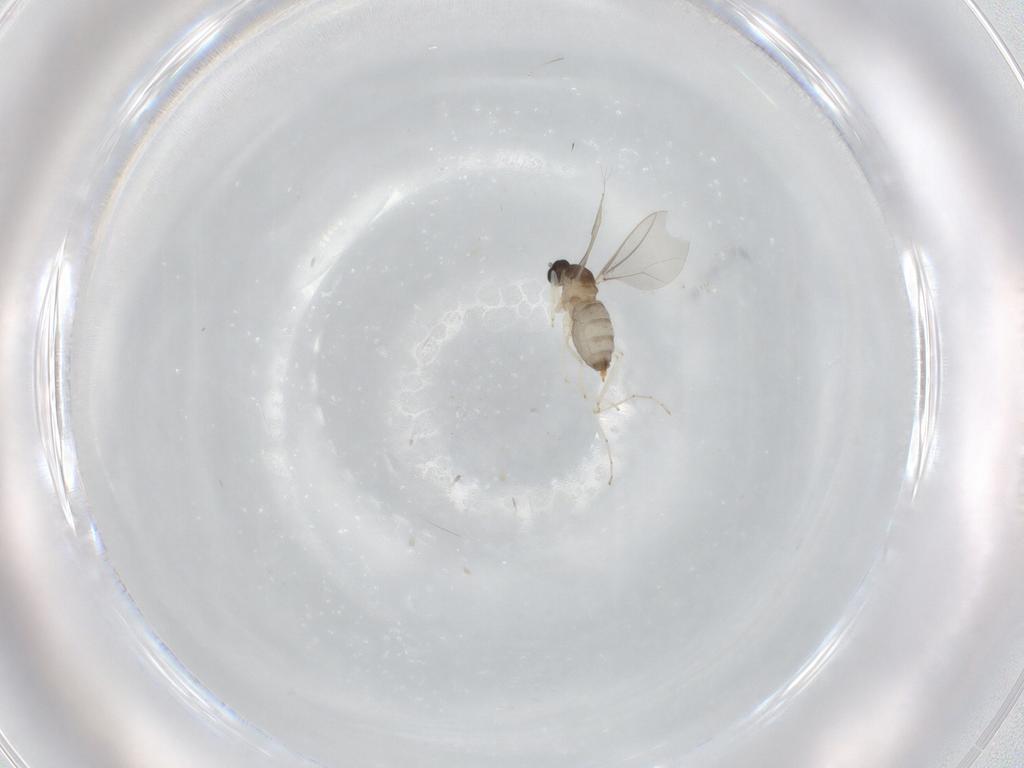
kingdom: Animalia
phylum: Arthropoda
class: Insecta
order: Diptera
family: Cecidomyiidae
